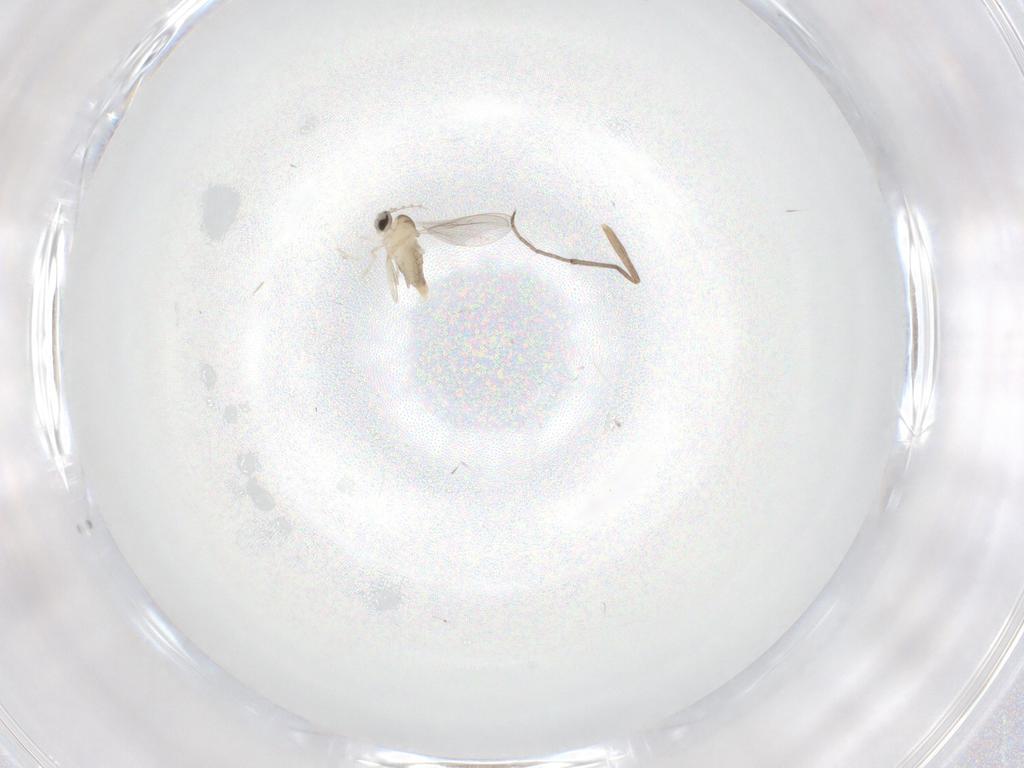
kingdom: Animalia
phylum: Arthropoda
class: Insecta
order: Diptera
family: Cecidomyiidae
